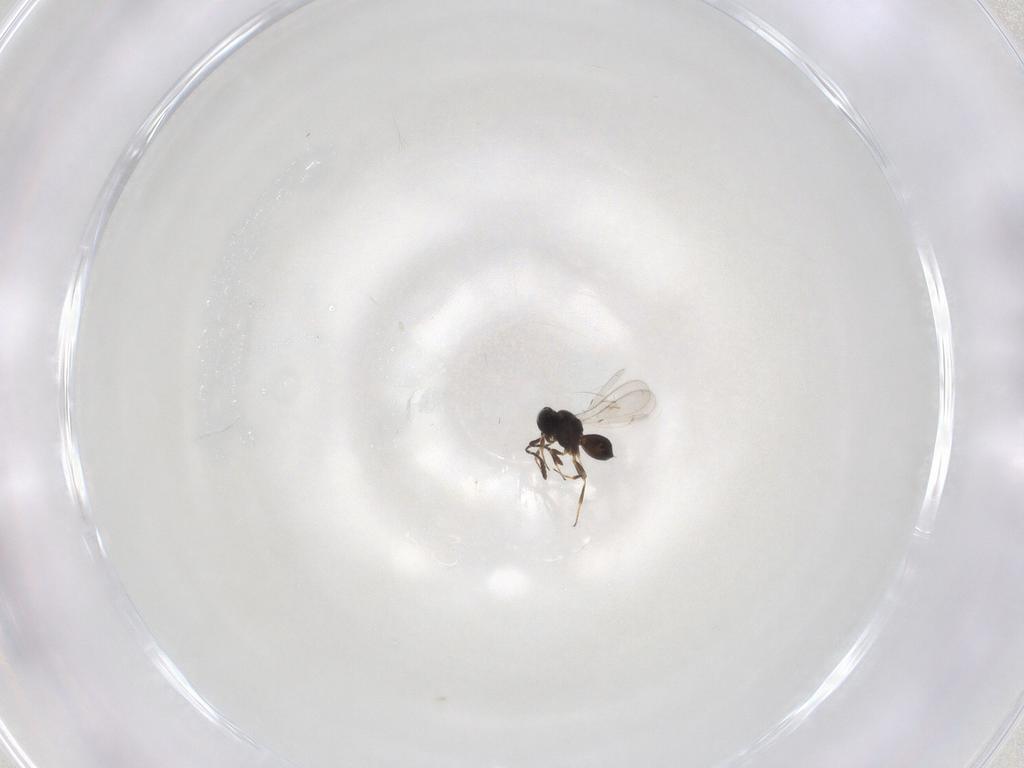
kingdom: Animalia
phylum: Arthropoda
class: Insecta
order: Hymenoptera
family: Scelionidae
